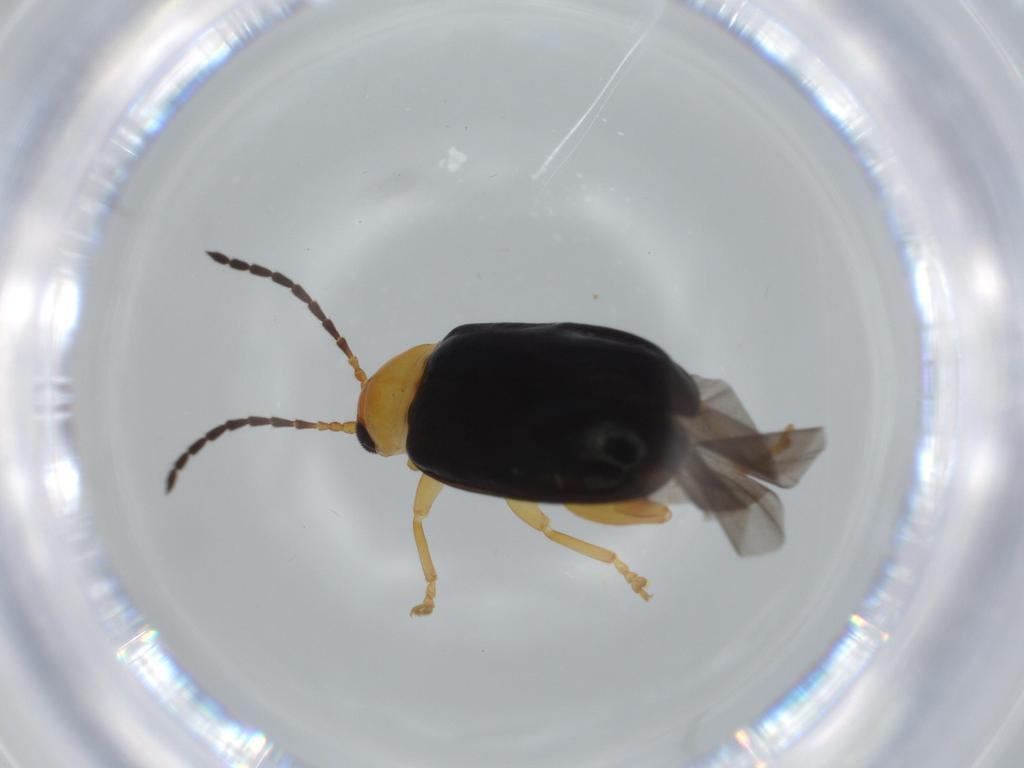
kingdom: Animalia
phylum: Arthropoda
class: Insecta
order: Coleoptera
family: Chrysomelidae
